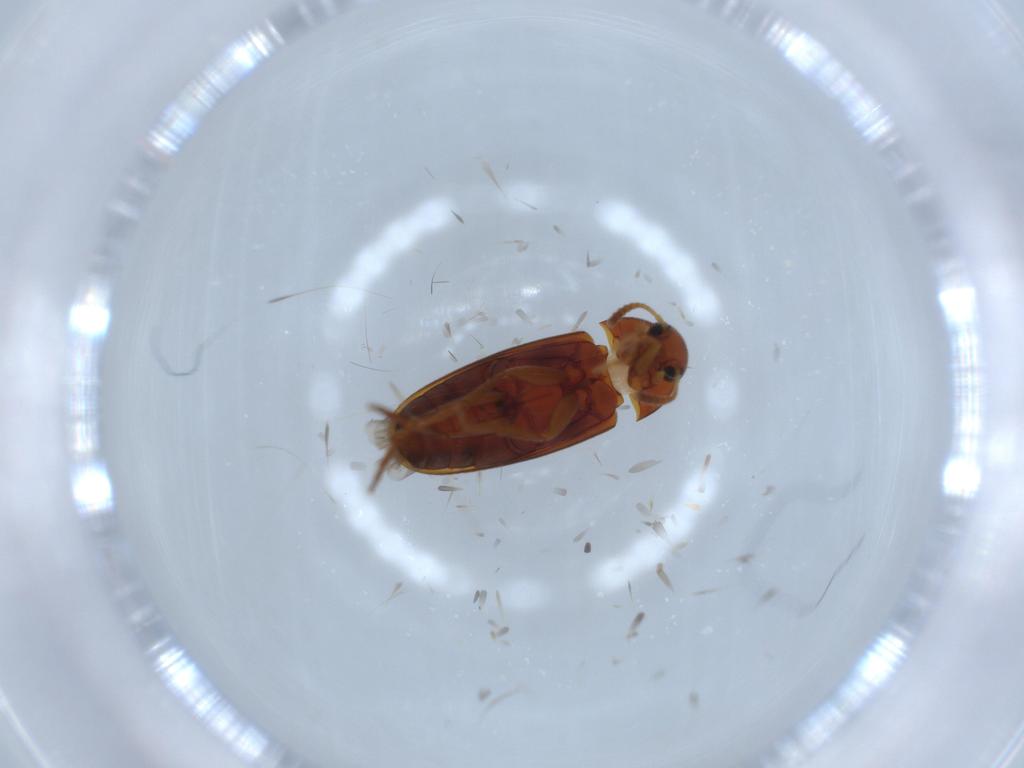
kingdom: Animalia
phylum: Arthropoda
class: Insecta
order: Coleoptera
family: Scraptiidae
